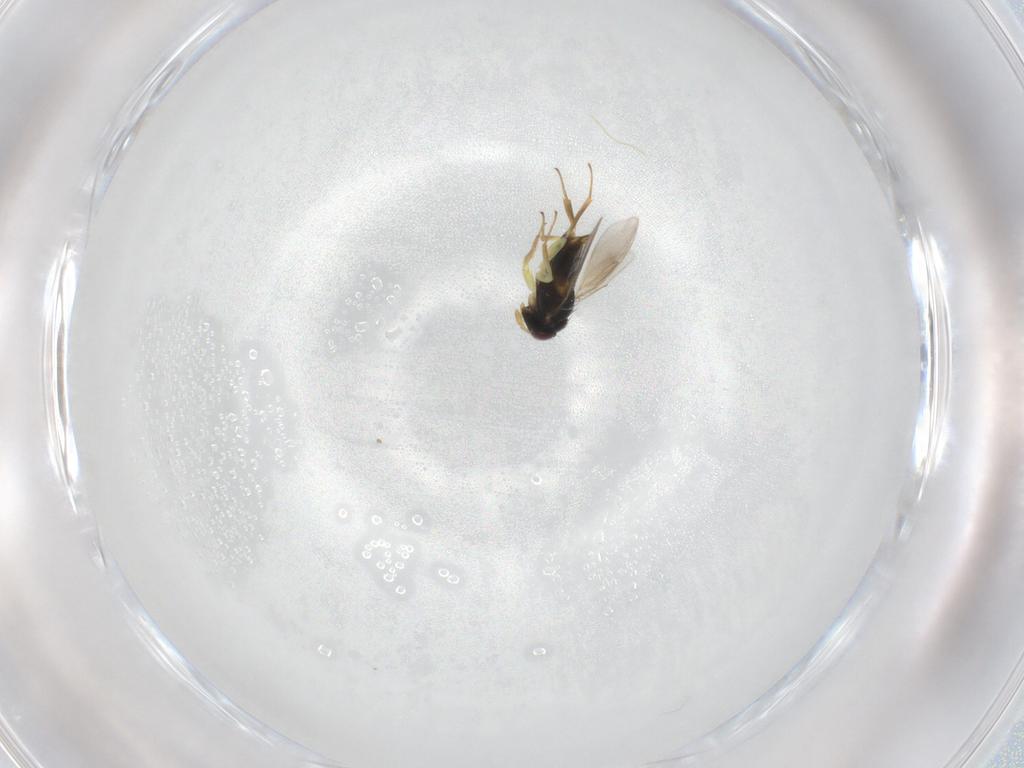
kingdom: Animalia
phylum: Arthropoda
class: Insecta
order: Hymenoptera
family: Aphelinidae
